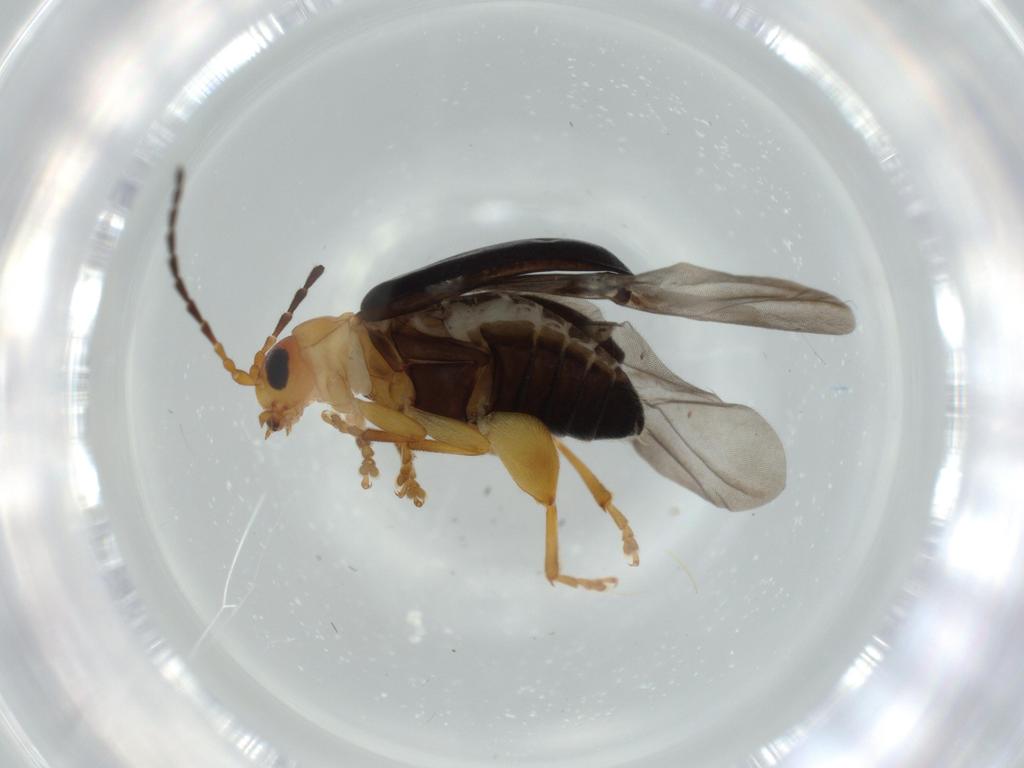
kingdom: Animalia
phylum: Arthropoda
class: Insecta
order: Coleoptera
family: Chrysomelidae
